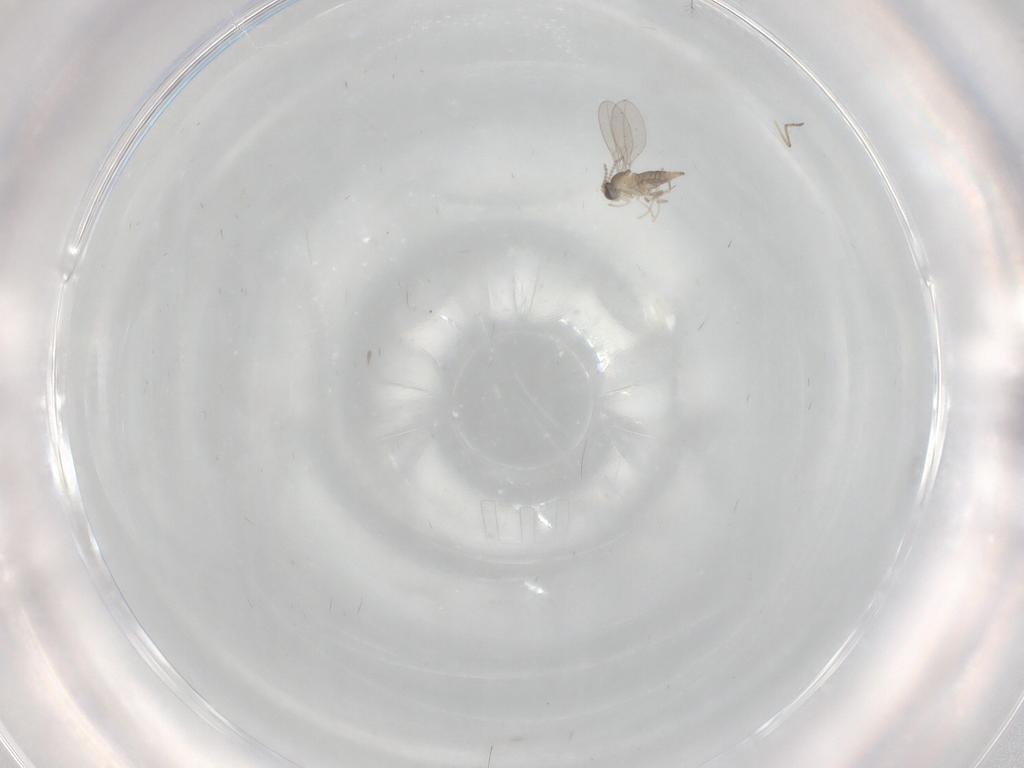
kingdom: Animalia
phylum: Arthropoda
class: Insecta
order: Diptera
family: Cecidomyiidae
